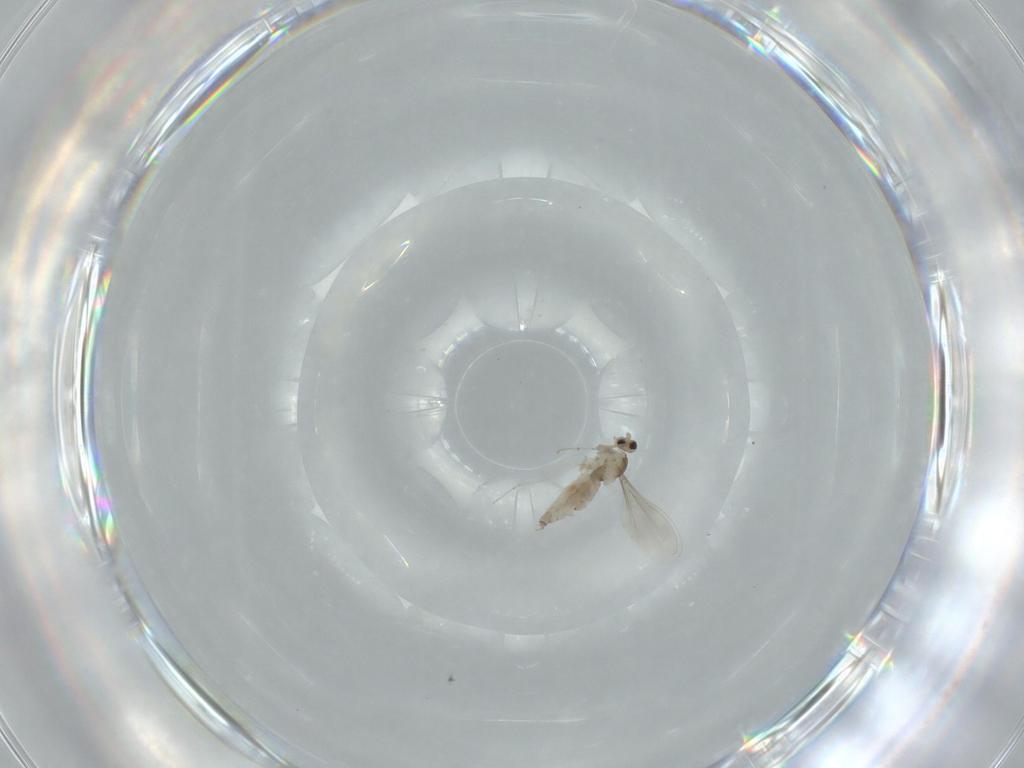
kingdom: Animalia
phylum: Arthropoda
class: Insecta
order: Diptera
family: Cecidomyiidae
